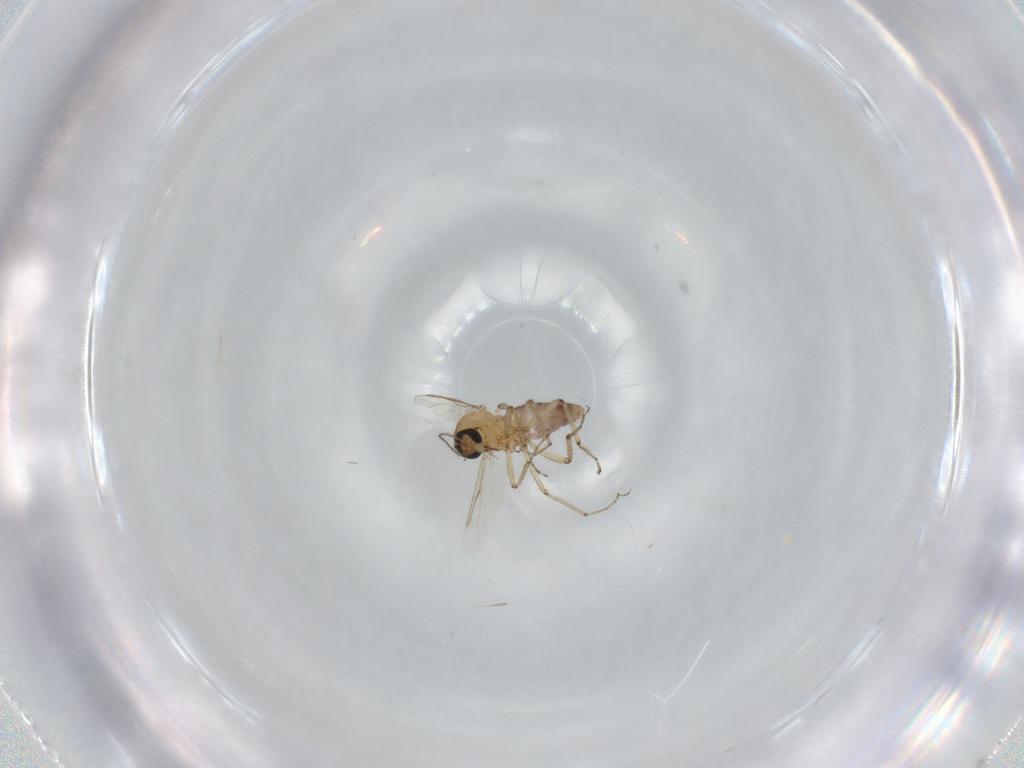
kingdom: Animalia
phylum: Arthropoda
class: Insecta
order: Diptera
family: Ceratopogonidae
